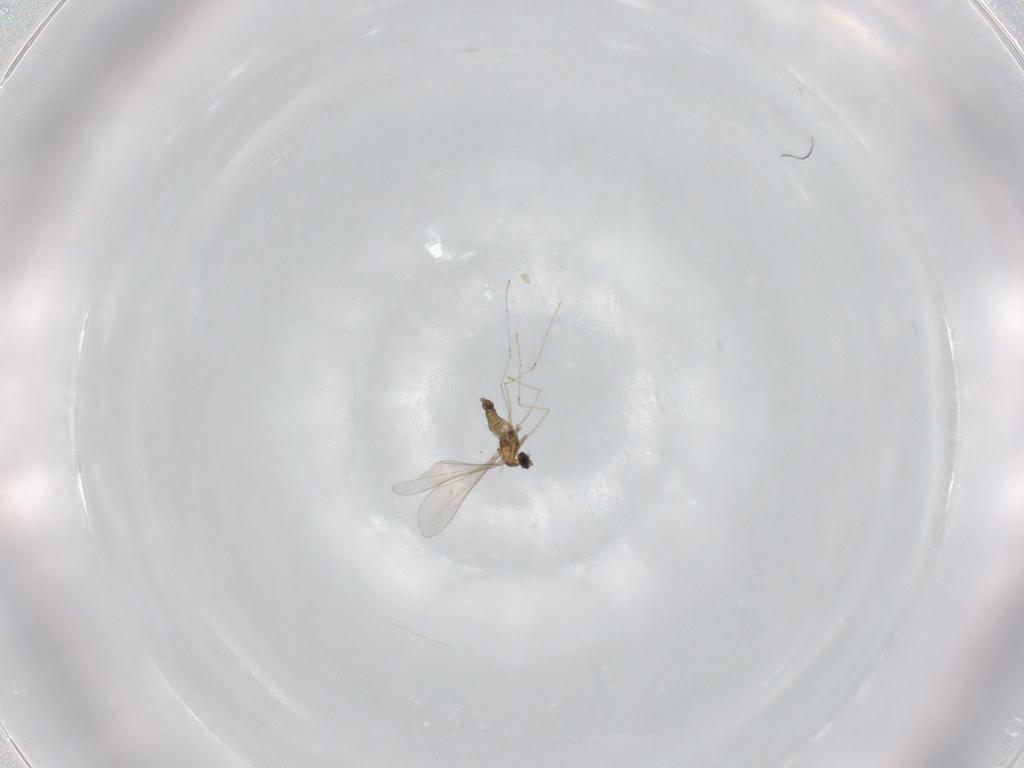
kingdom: Animalia
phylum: Arthropoda
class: Insecta
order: Diptera
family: Cecidomyiidae
